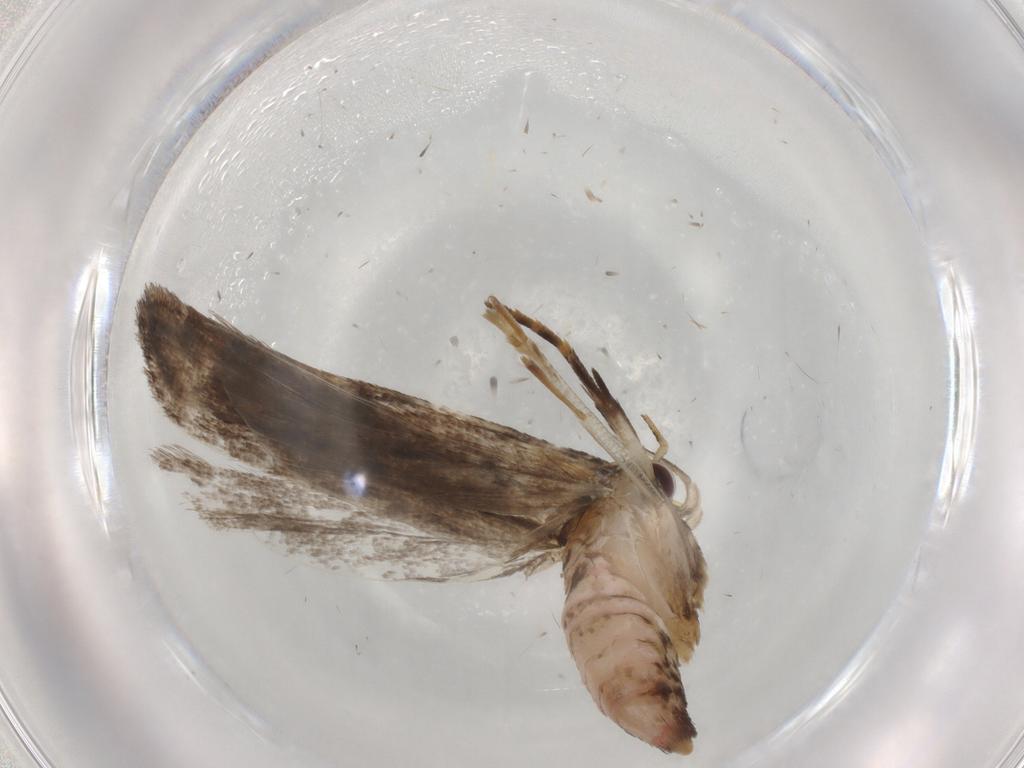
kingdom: Animalia
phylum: Arthropoda
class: Insecta
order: Lepidoptera
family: Gelechiidae
